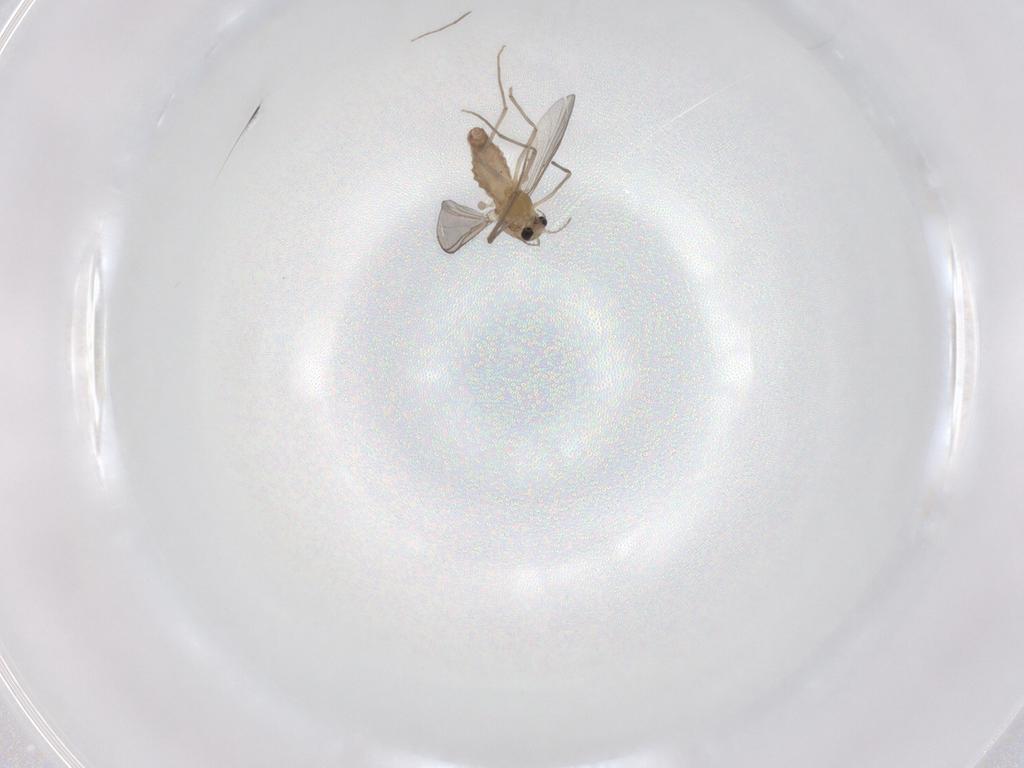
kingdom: Animalia
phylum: Arthropoda
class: Insecta
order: Diptera
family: Chironomidae
